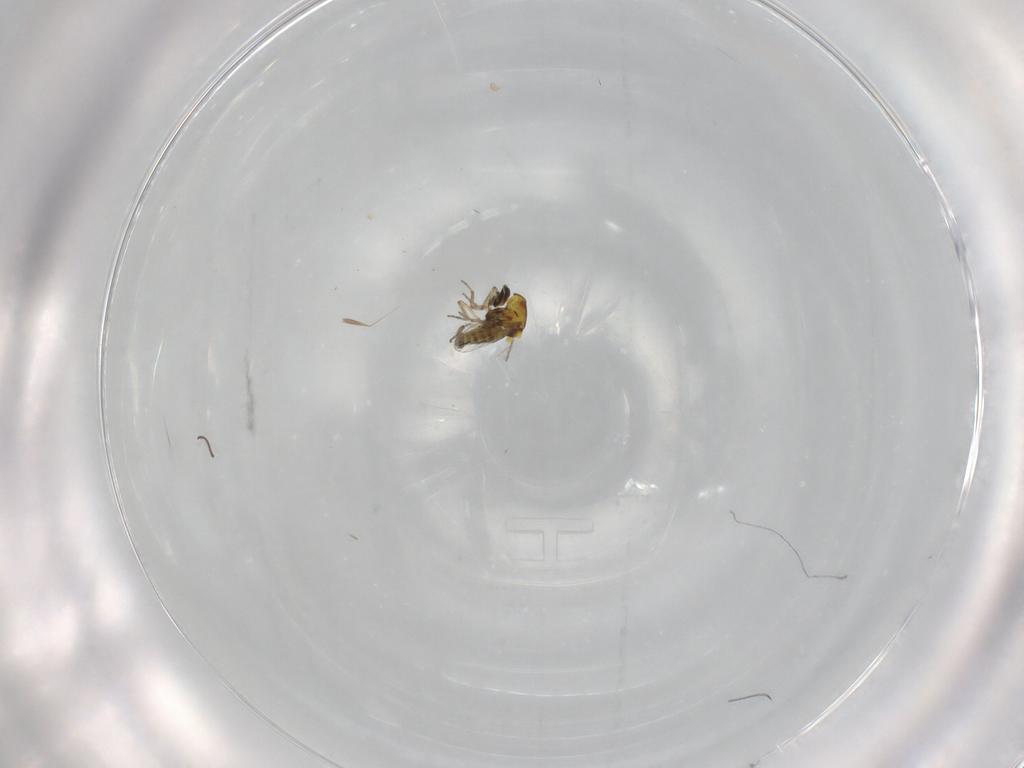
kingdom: Animalia
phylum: Arthropoda
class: Insecta
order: Diptera
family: Ceratopogonidae
